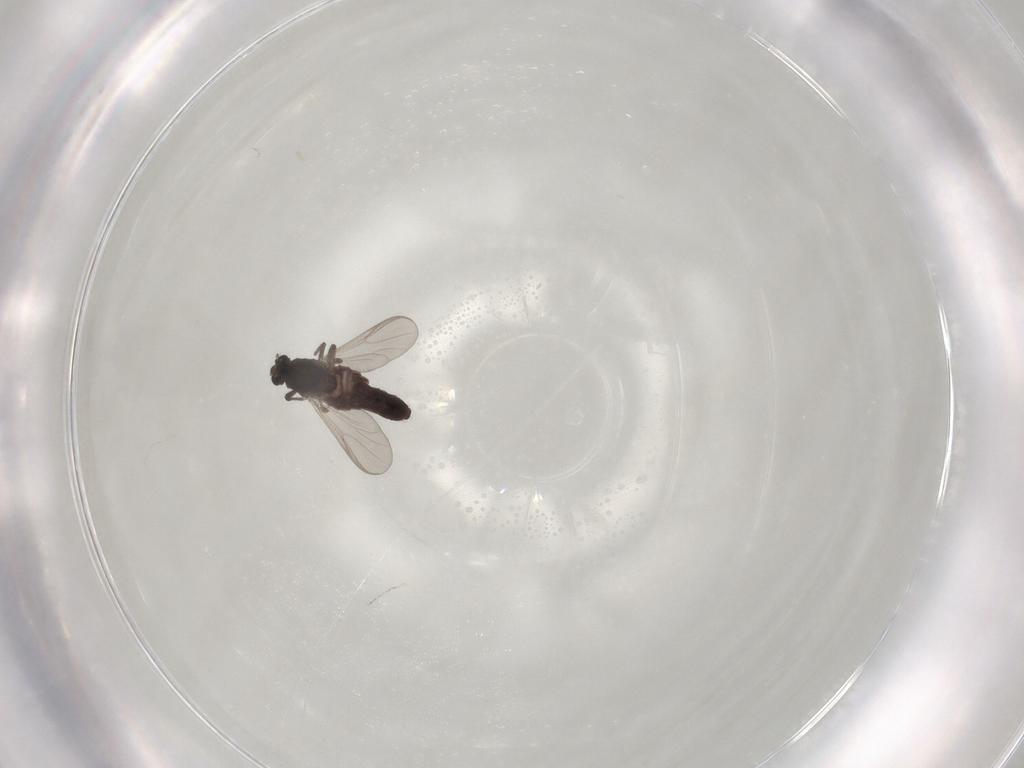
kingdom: Animalia
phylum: Arthropoda
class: Insecta
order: Diptera
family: Chironomidae
